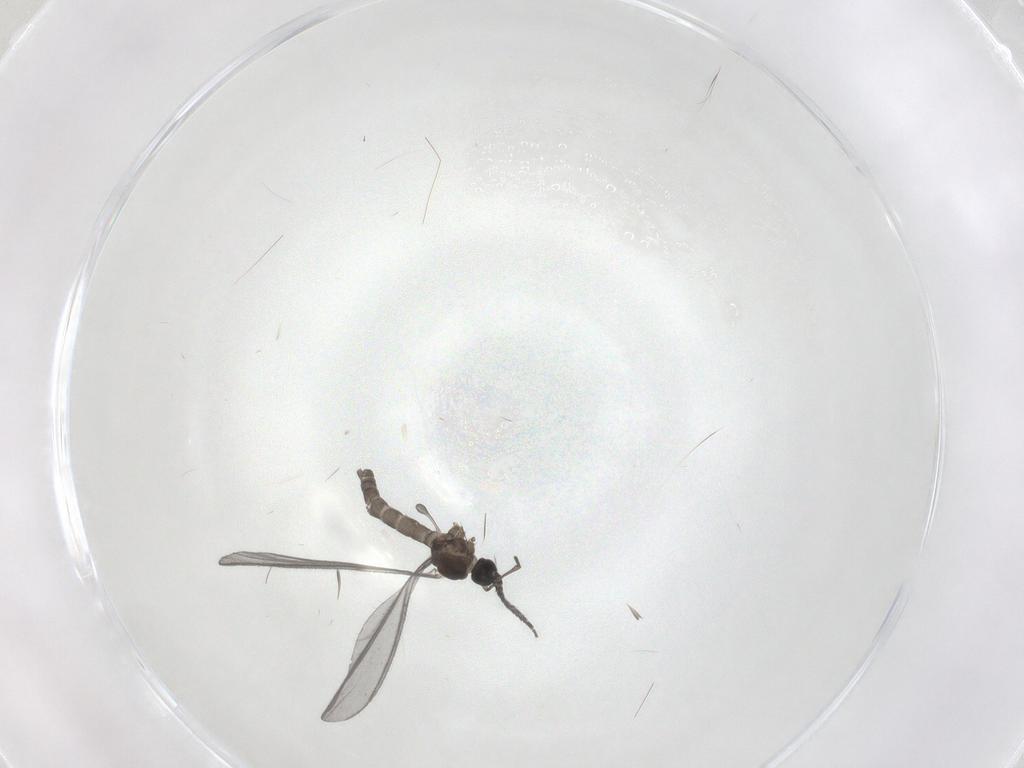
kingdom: Animalia
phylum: Arthropoda
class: Insecta
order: Diptera
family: Sciaridae
